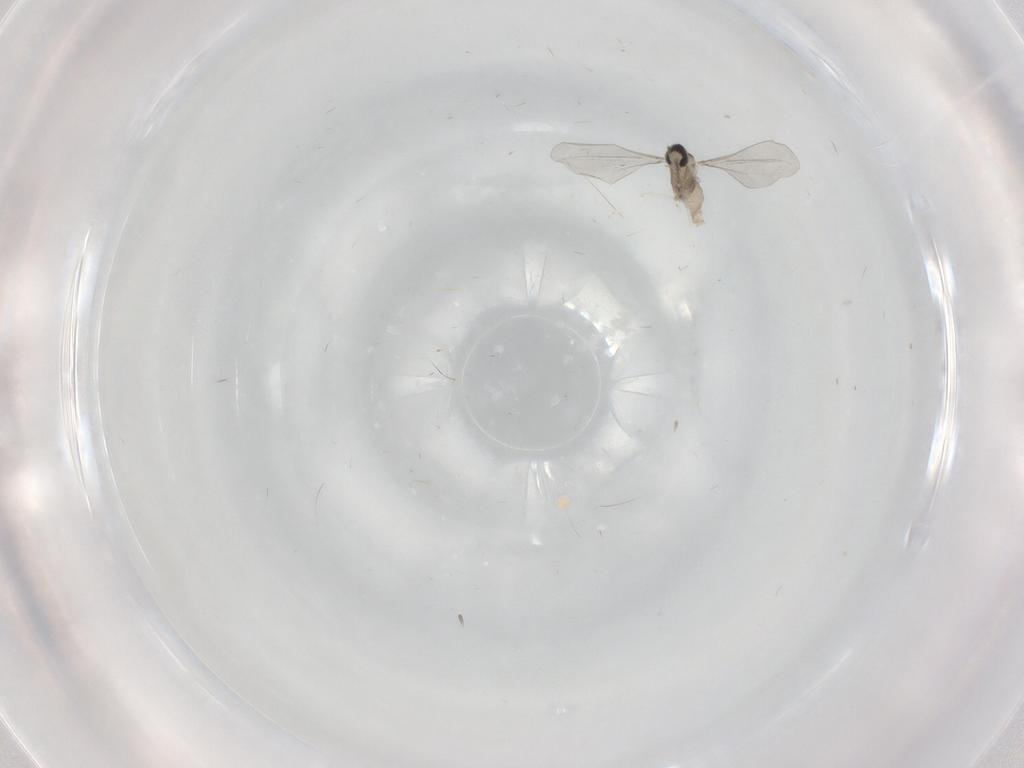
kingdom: Animalia
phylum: Arthropoda
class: Insecta
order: Diptera
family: Limoniidae
